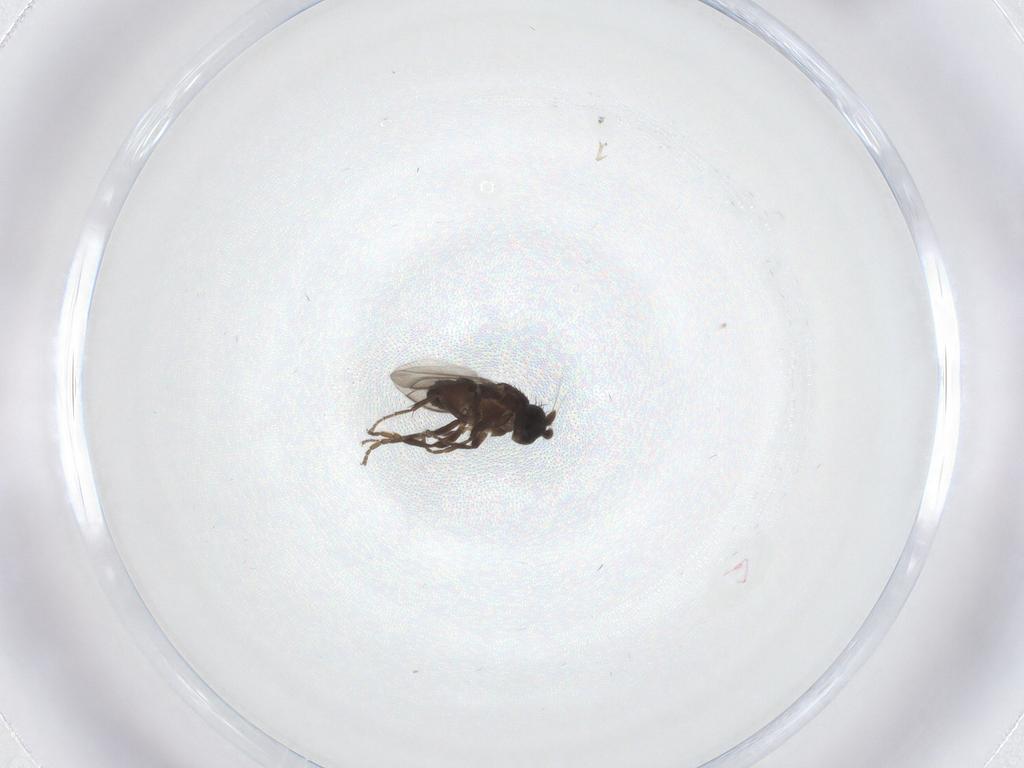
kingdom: Animalia
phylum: Arthropoda
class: Insecta
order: Diptera
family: Sphaeroceridae
